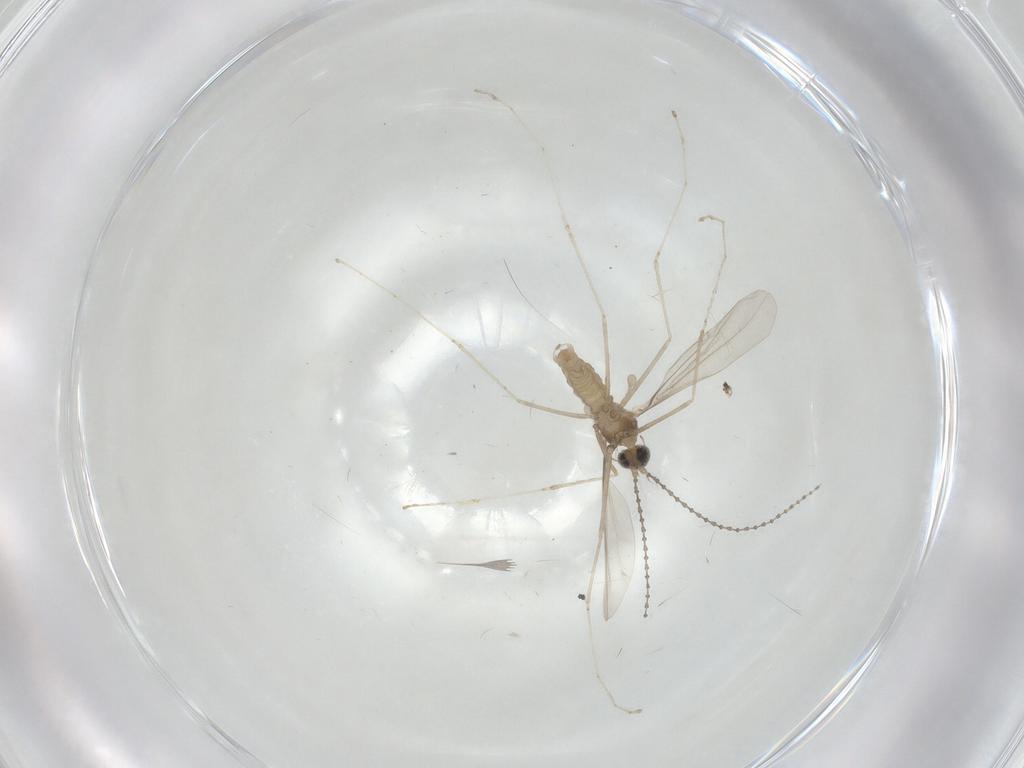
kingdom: Animalia
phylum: Arthropoda
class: Insecta
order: Diptera
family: Cecidomyiidae
